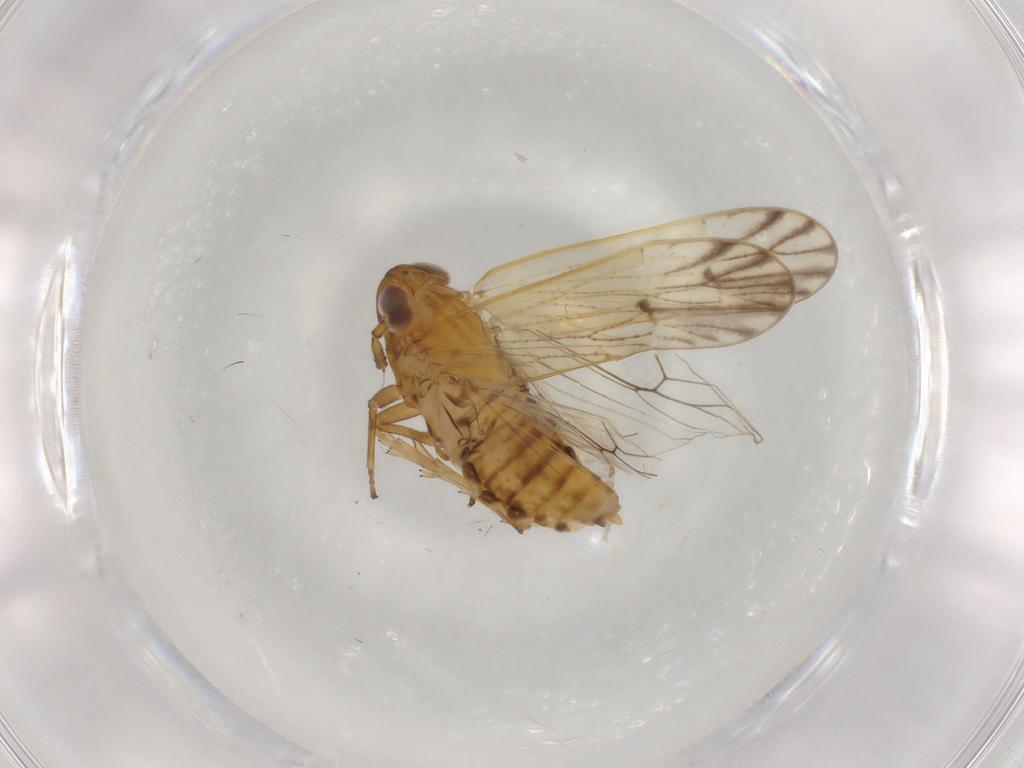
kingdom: Animalia
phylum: Arthropoda
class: Insecta
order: Hemiptera
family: Delphacidae
